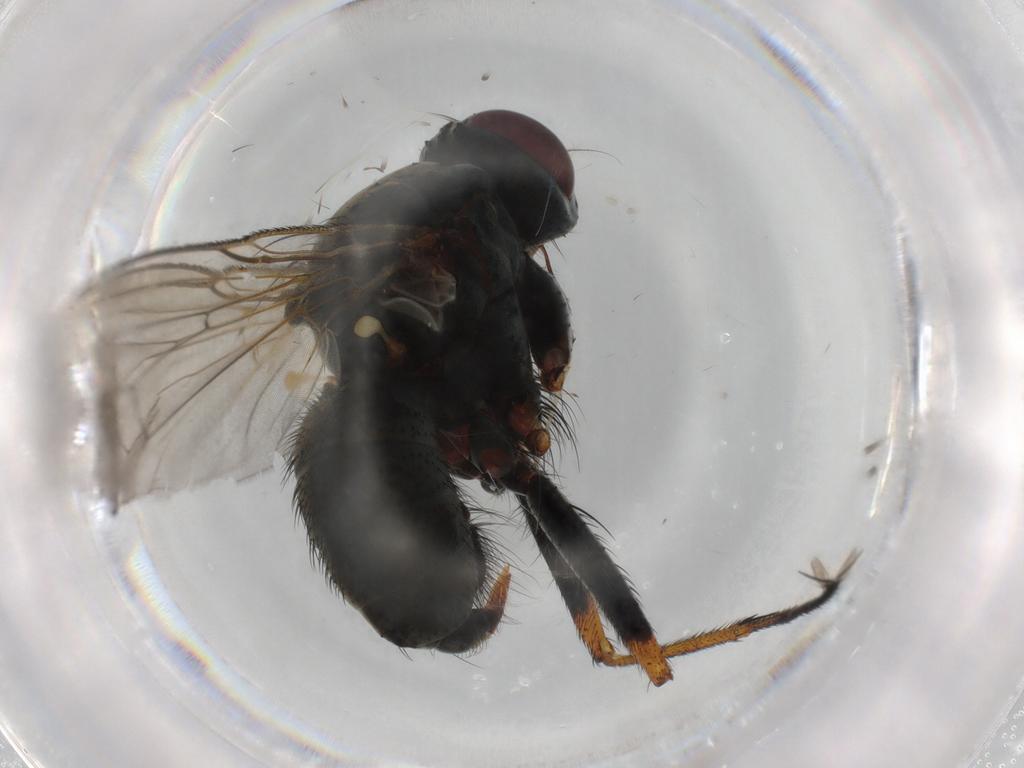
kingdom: Animalia
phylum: Arthropoda
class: Insecta
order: Diptera
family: Muscidae
